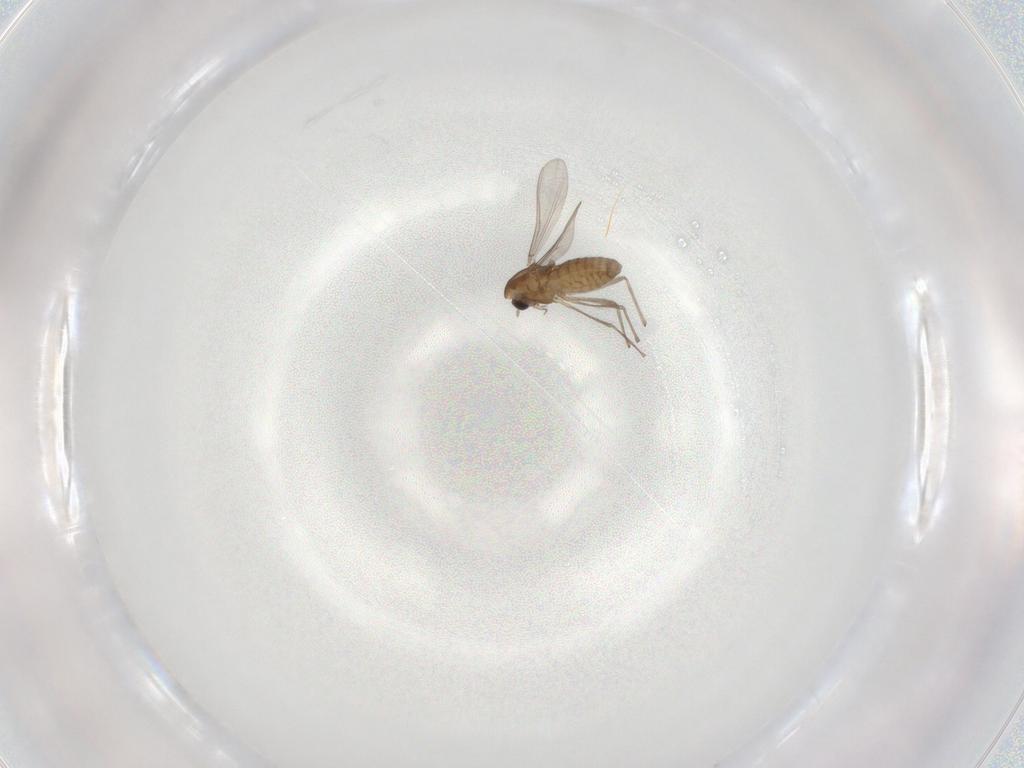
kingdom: Animalia
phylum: Arthropoda
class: Insecta
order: Diptera
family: Chironomidae
